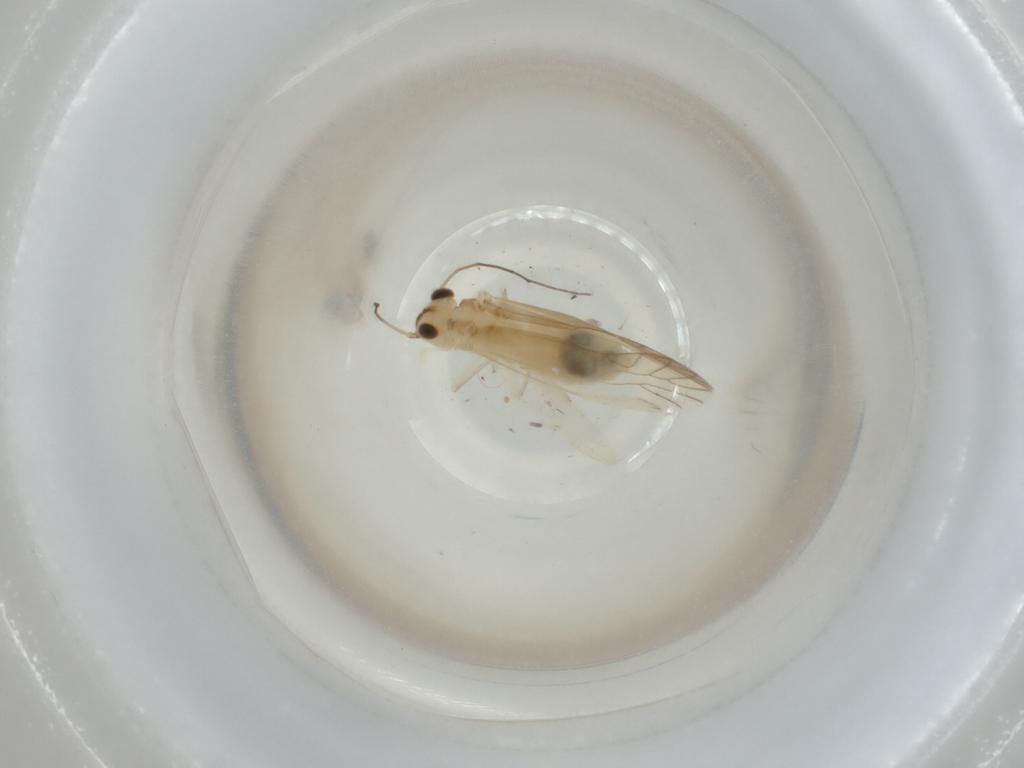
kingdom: Animalia
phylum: Arthropoda
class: Insecta
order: Psocodea
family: Caeciliusidae
